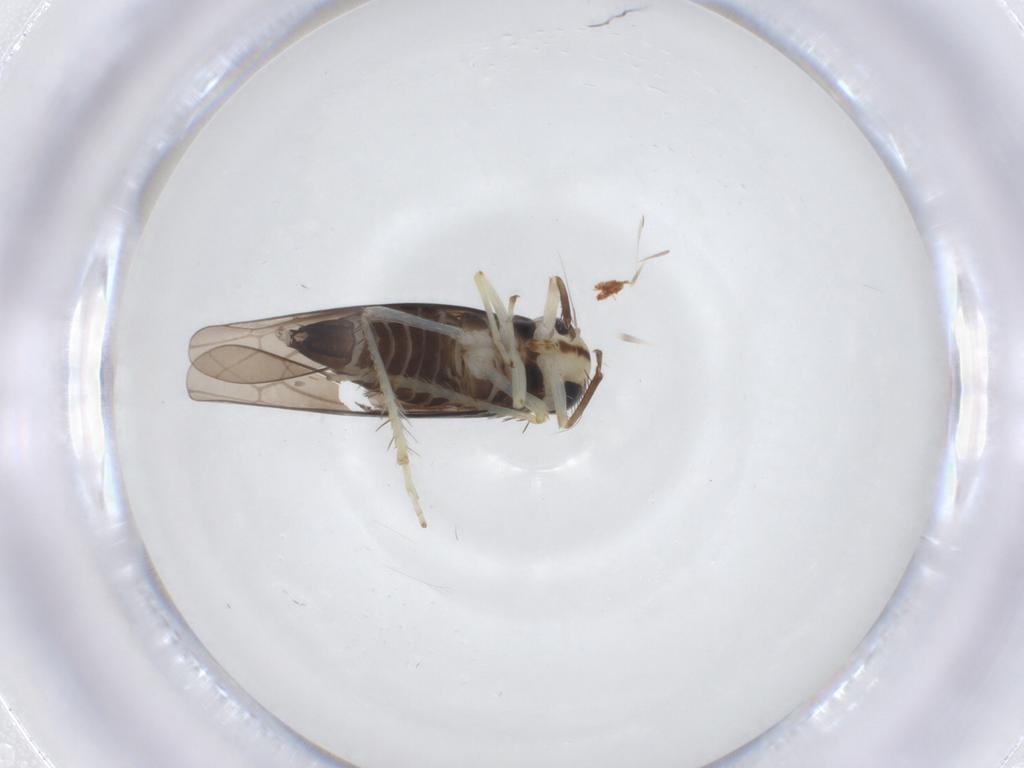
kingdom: Animalia
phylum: Arthropoda
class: Insecta
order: Hemiptera
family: Cicadellidae
